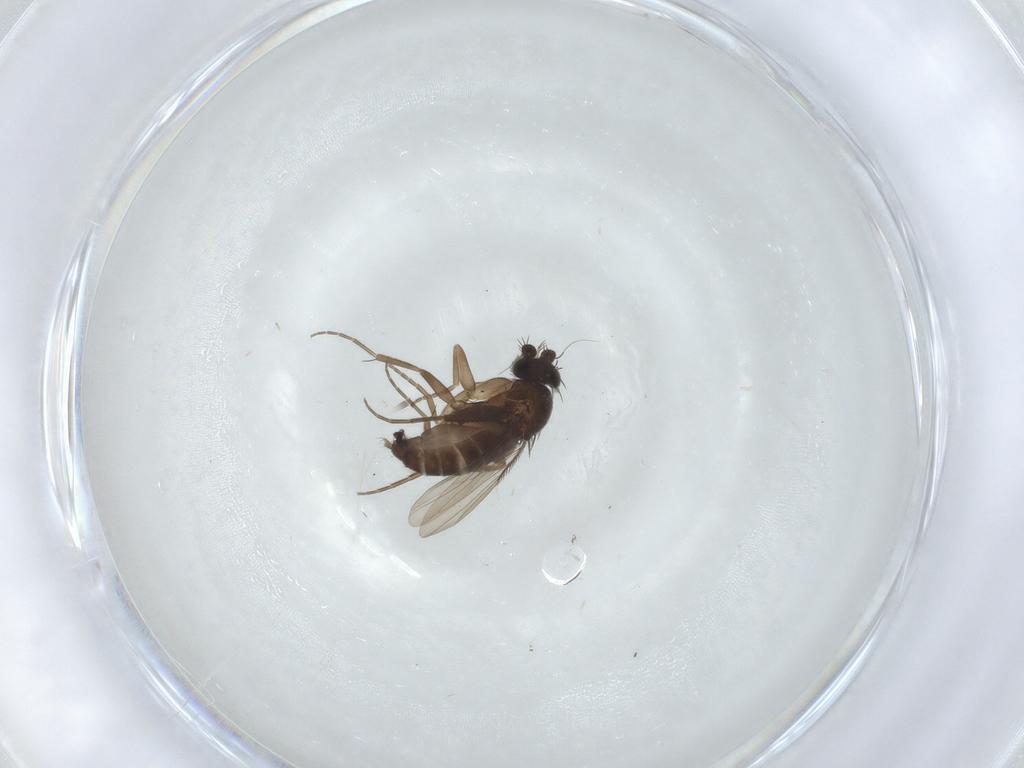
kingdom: Animalia
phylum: Arthropoda
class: Insecta
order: Diptera
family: Phoridae
